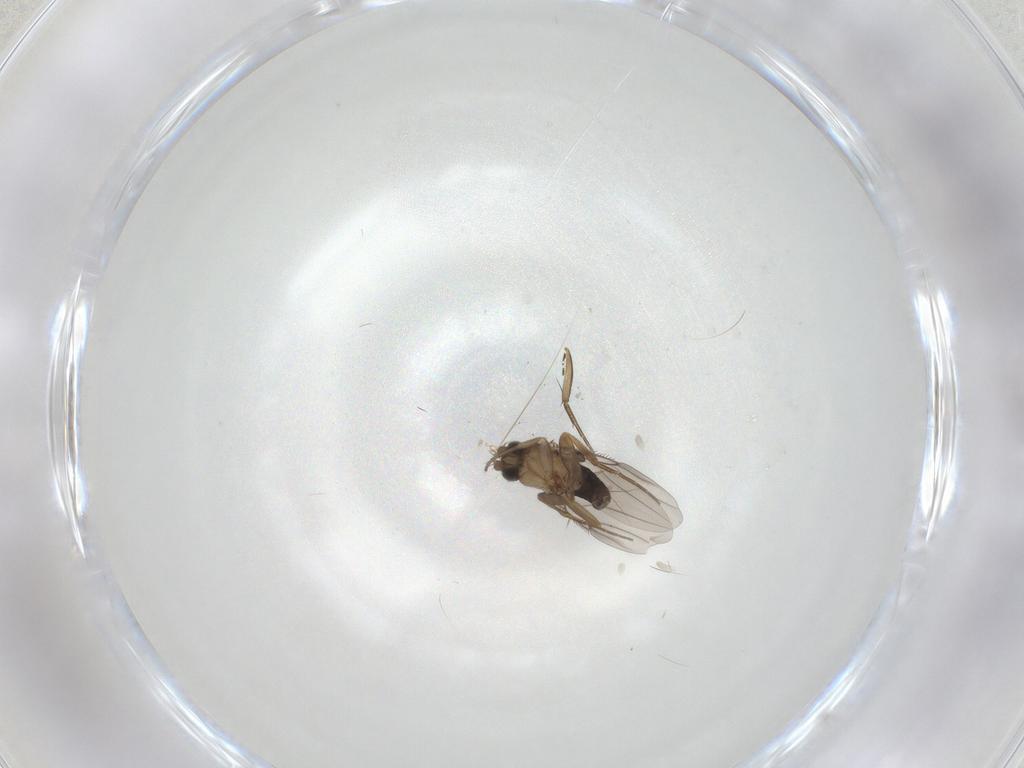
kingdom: Animalia
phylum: Arthropoda
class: Insecta
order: Diptera
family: Phoridae
